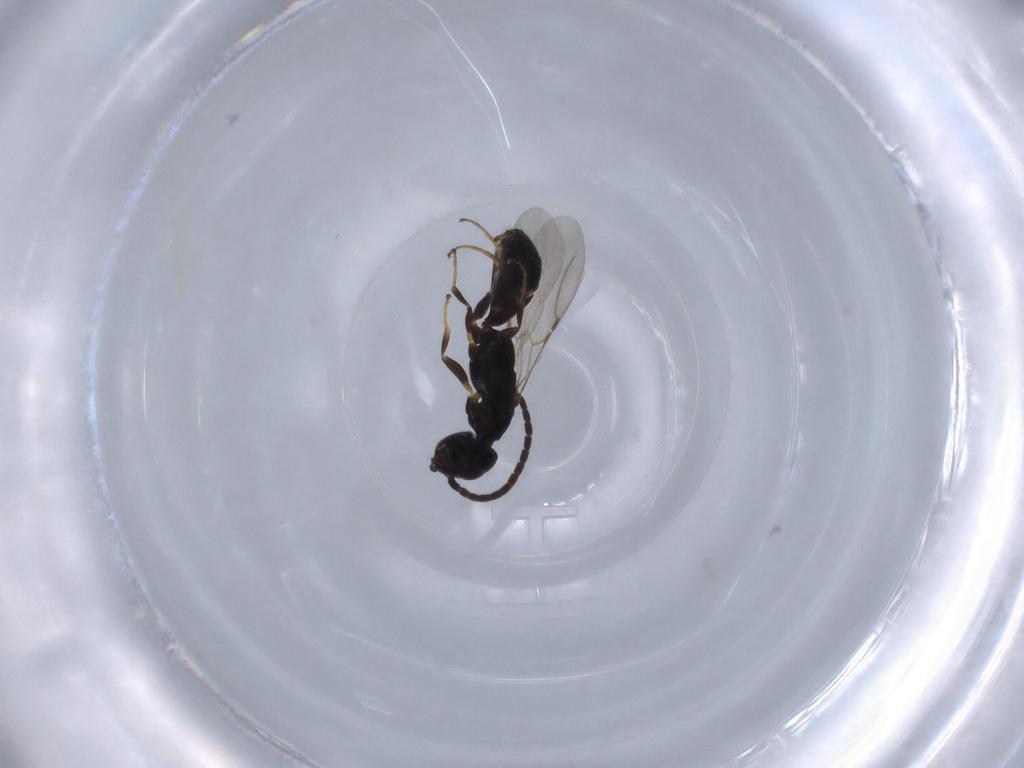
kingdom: Animalia
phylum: Arthropoda
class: Insecta
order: Hymenoptera
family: Bethylidae
